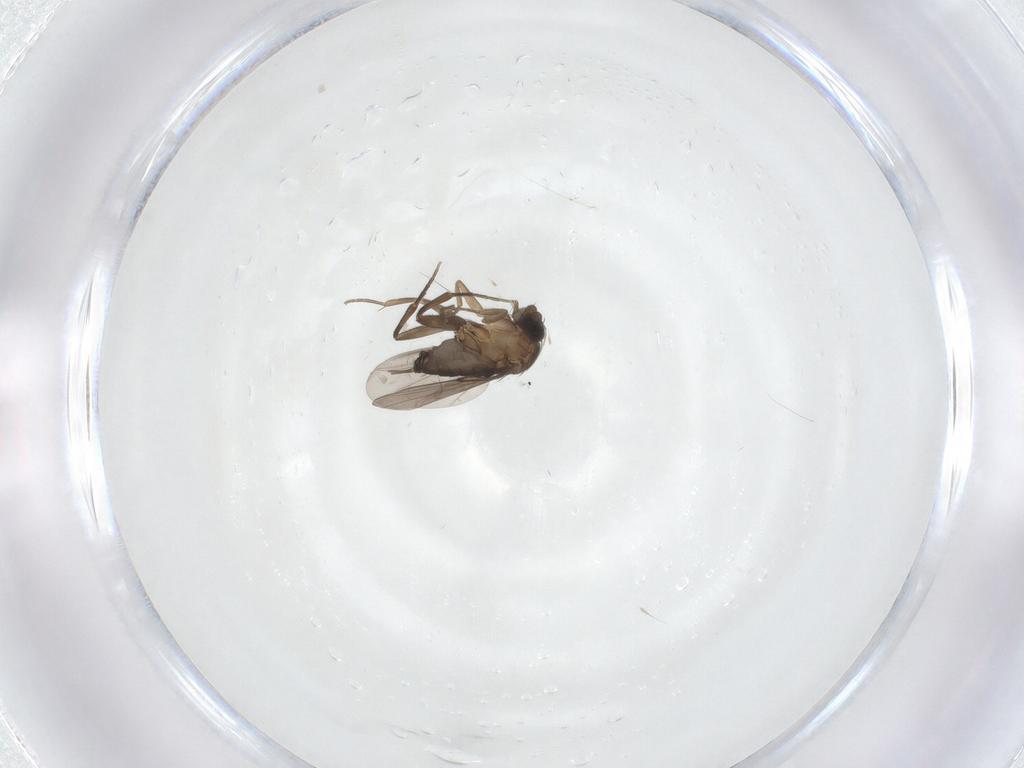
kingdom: Animalia
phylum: Arthropoda
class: Insecta
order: Diptera
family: Phoridae
